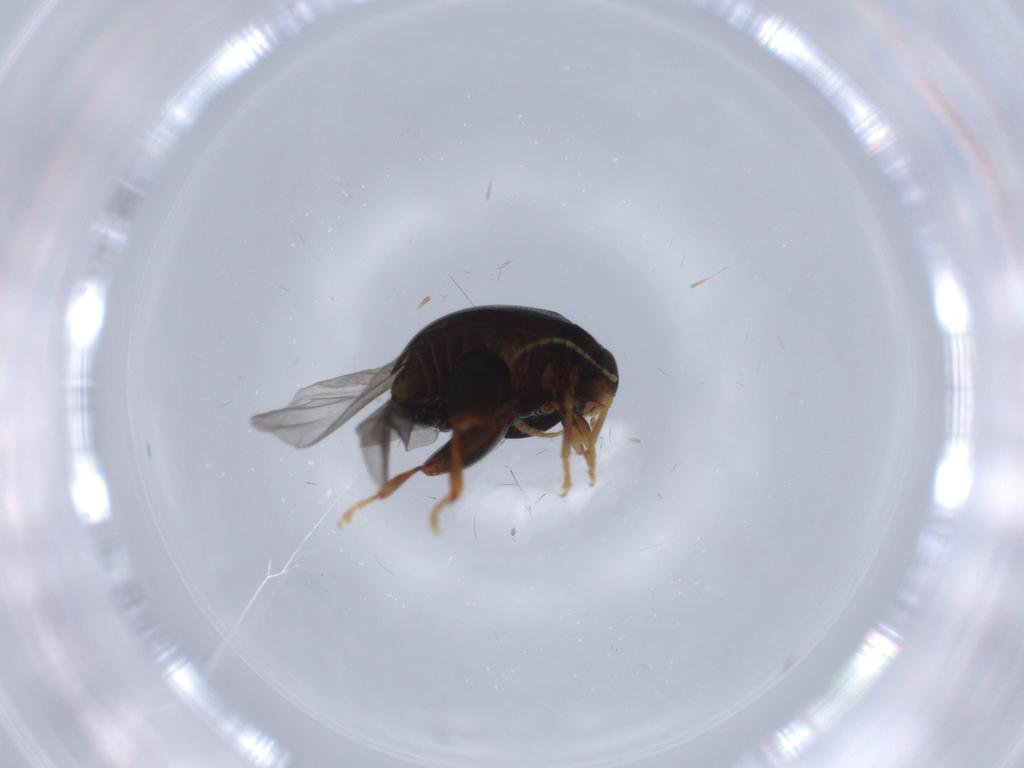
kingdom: Animalia
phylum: Arthropoda
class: Insecta
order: Coleoptera
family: Chrysomelidae
